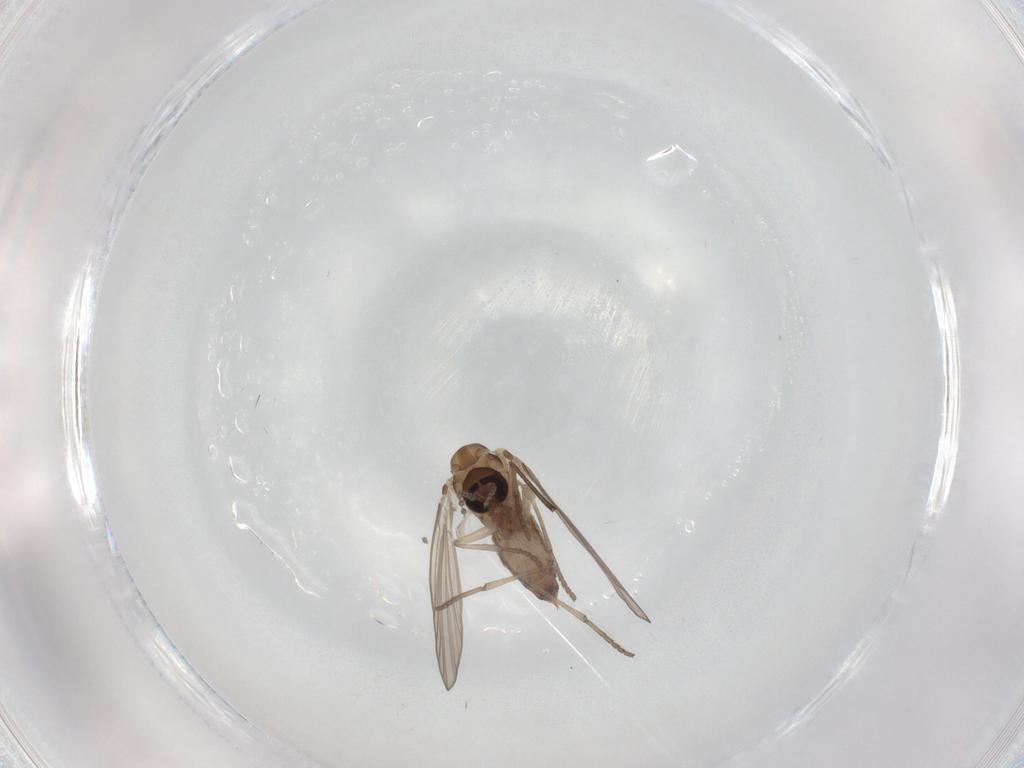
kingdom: Animalia
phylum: Arthropoda
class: Insecta
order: Diptera
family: Psychodidae
